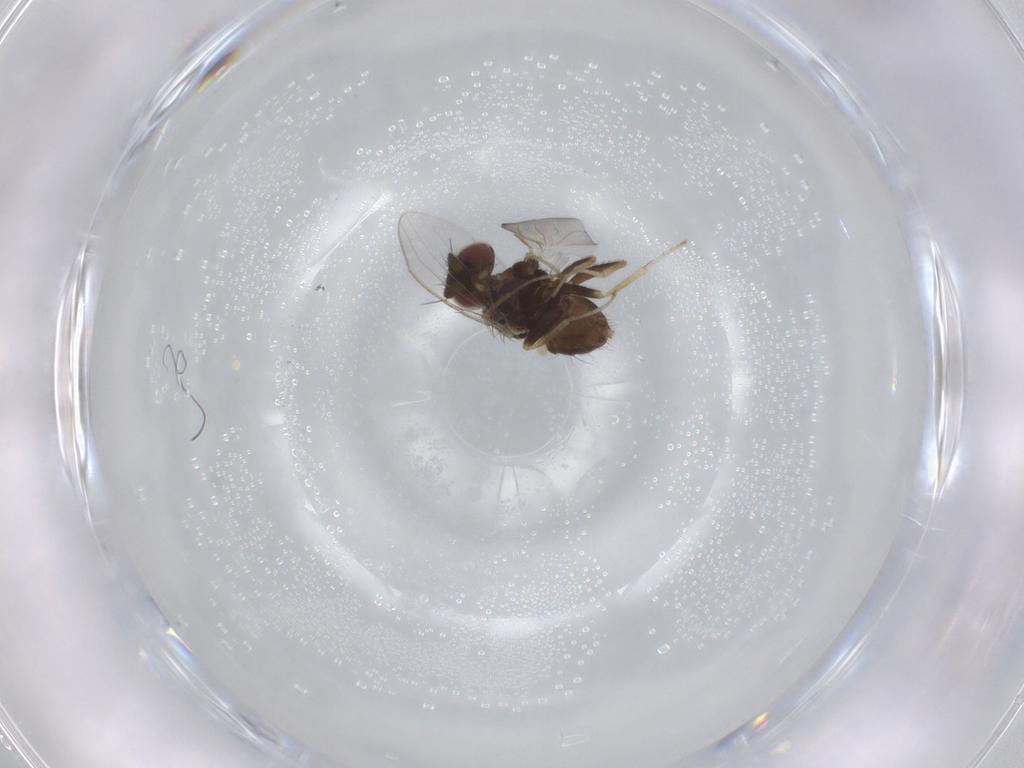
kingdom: Animalia
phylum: Arthropoda
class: Insecta
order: Diptera
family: Milichiidae
